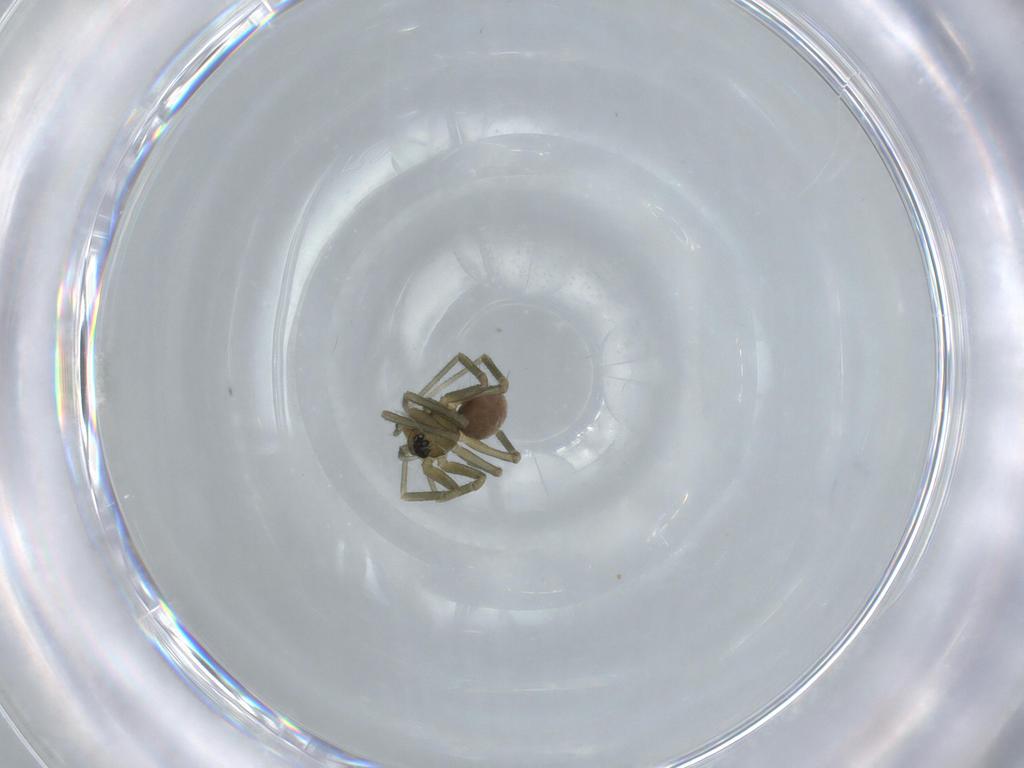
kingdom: Animalia
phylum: Arthropoda
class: Arachnida
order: Araneae
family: Linyphiidae
